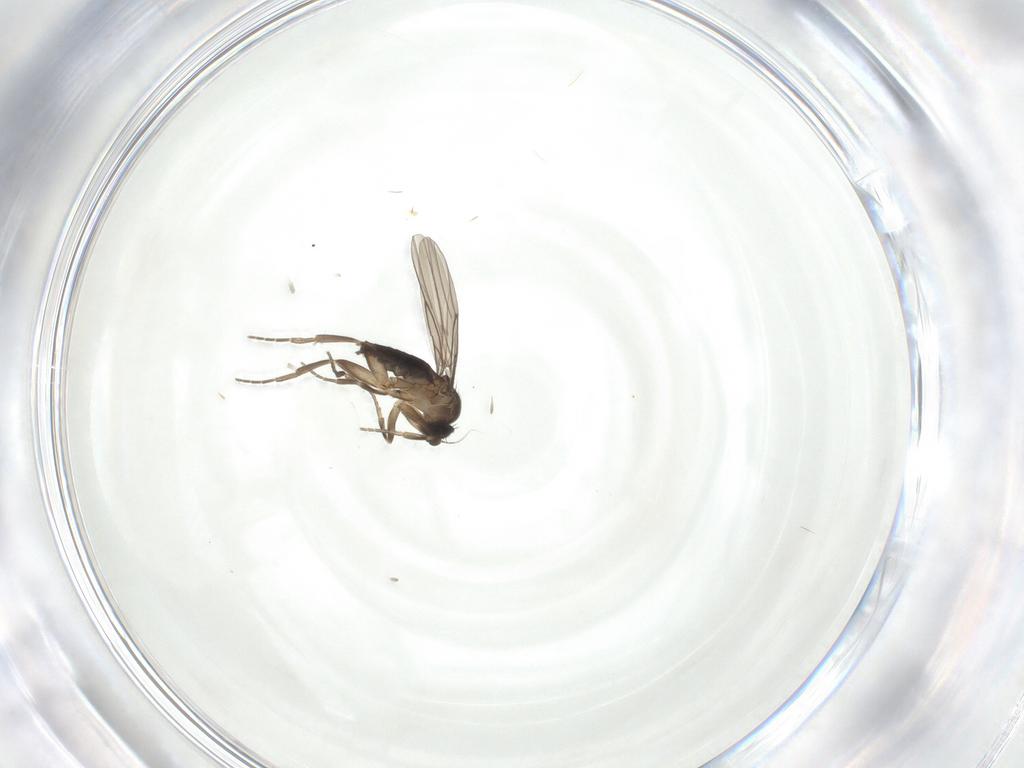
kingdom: Animalia
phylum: Arthropoda
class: Insecta
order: Diptera
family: Phoridae
